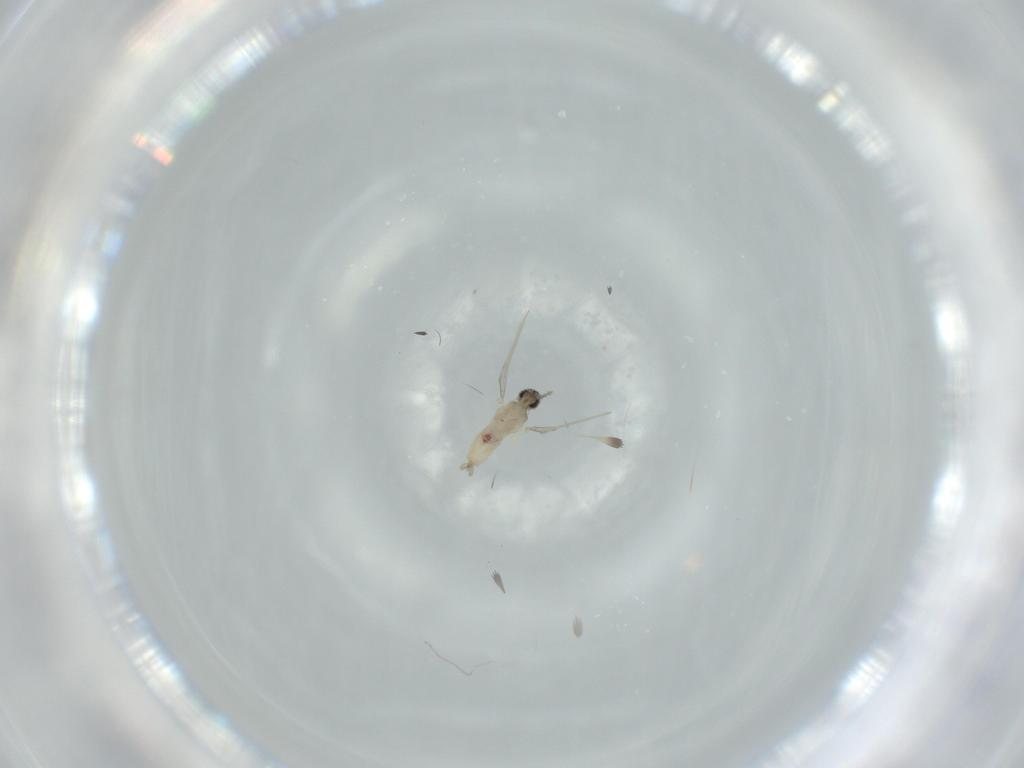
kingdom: Animalia
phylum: Arthropoda
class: Insecta
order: Diptera
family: Cecidomyiidae
